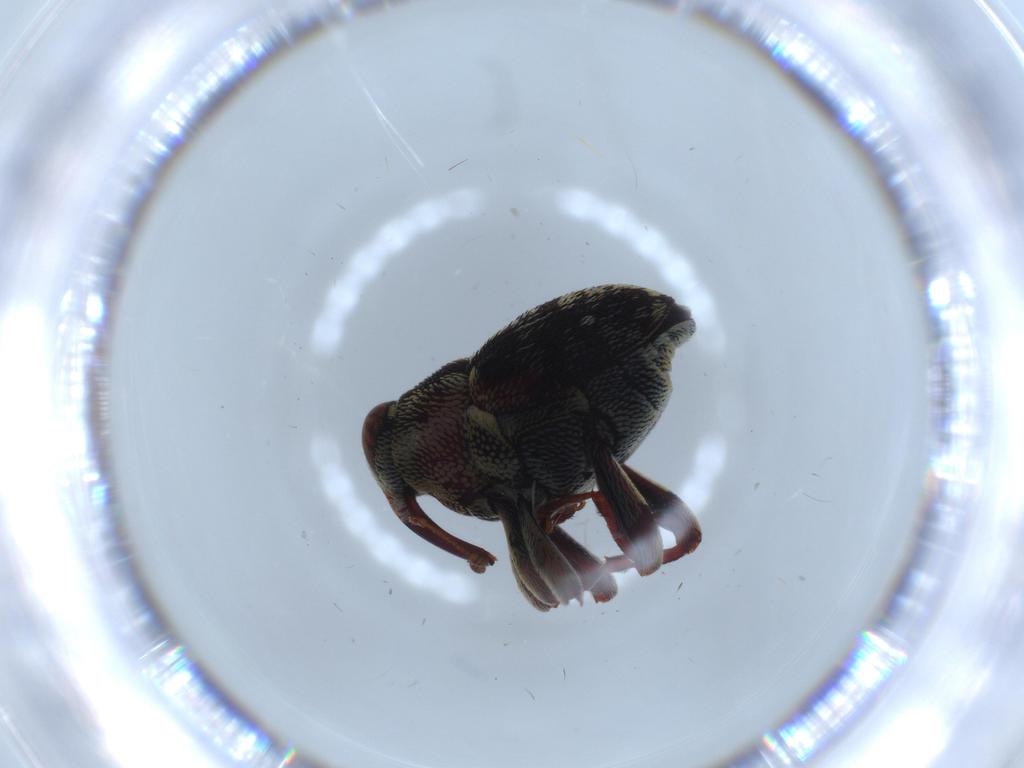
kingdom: Animalia
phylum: Arthropoda
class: Insecta
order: Coleoptera
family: Curculionidae
